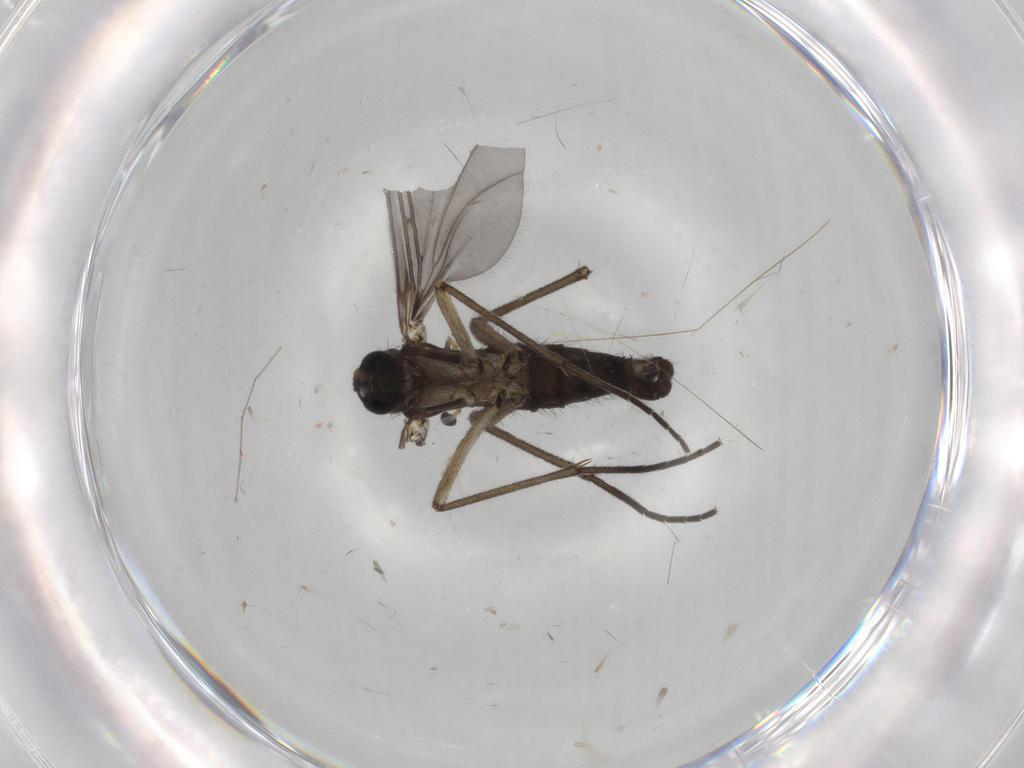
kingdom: Animalia
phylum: Arthropoda
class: Insecta
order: Diptera
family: Sciaridae
